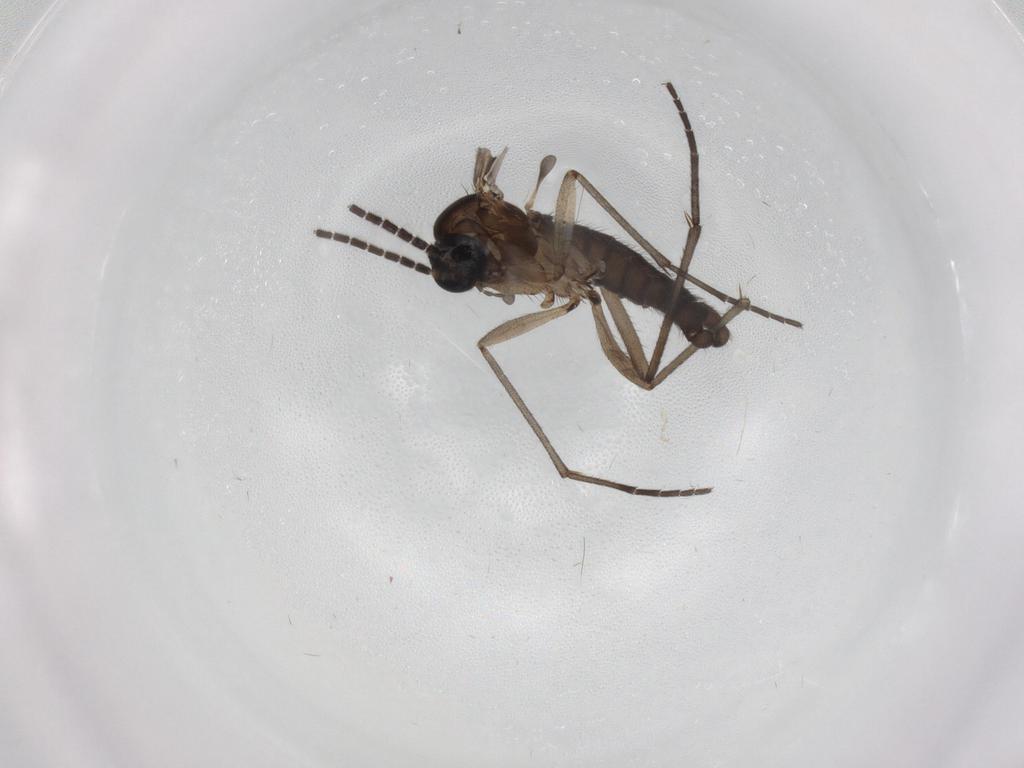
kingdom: Animalia
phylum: Arthropoda
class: Insecta
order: Diptera
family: Sciaridae
